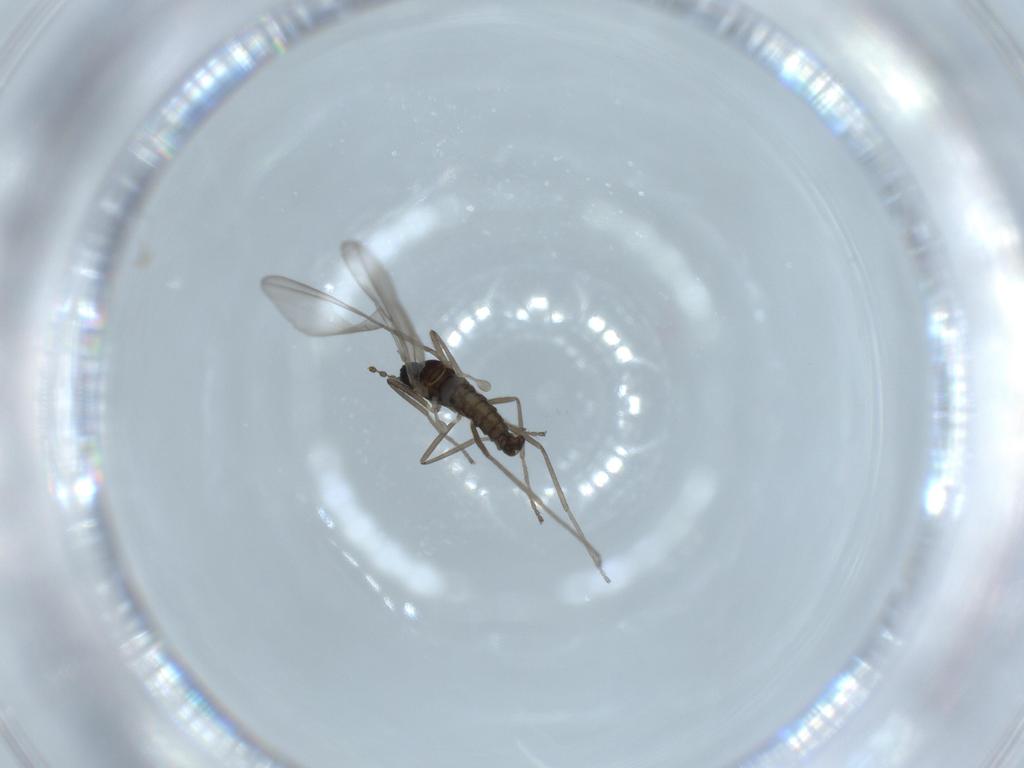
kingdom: Animalia
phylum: Arthropoda
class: Insecta
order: Diptera
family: Cecidomyiidae
